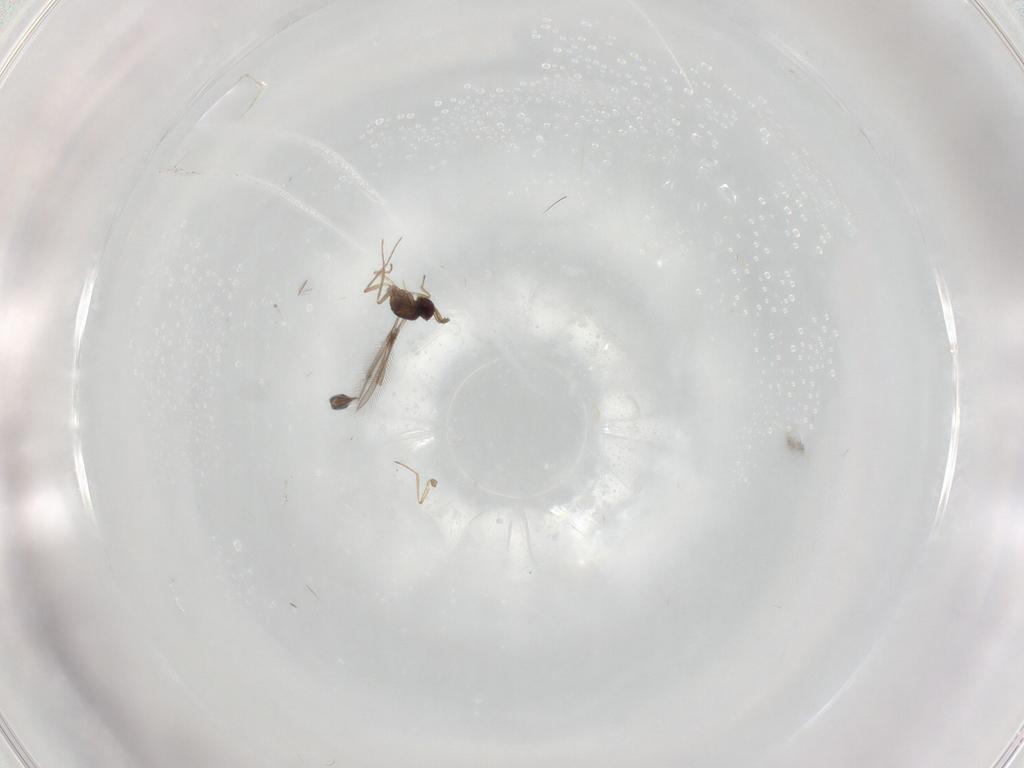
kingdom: Animalia
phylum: Arthropoda
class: Insecta
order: Hymenoptera
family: Mymaridae
